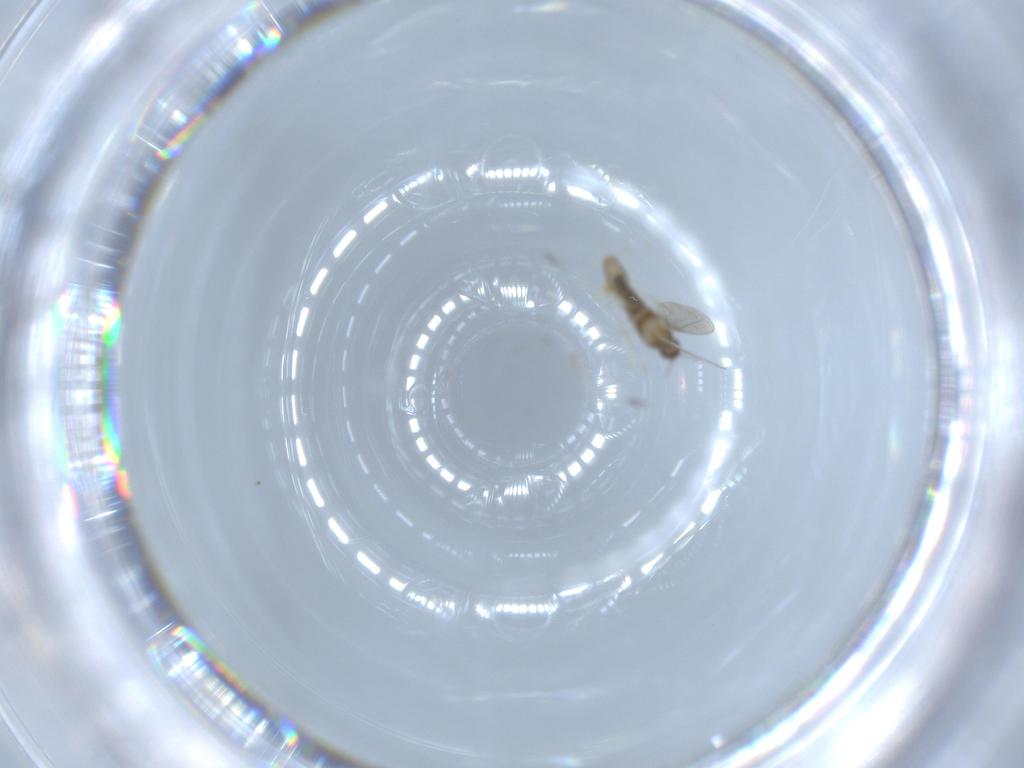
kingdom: Animalia
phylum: Arthropoda
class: Insecta
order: Diptera
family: Cecidomyiidae
